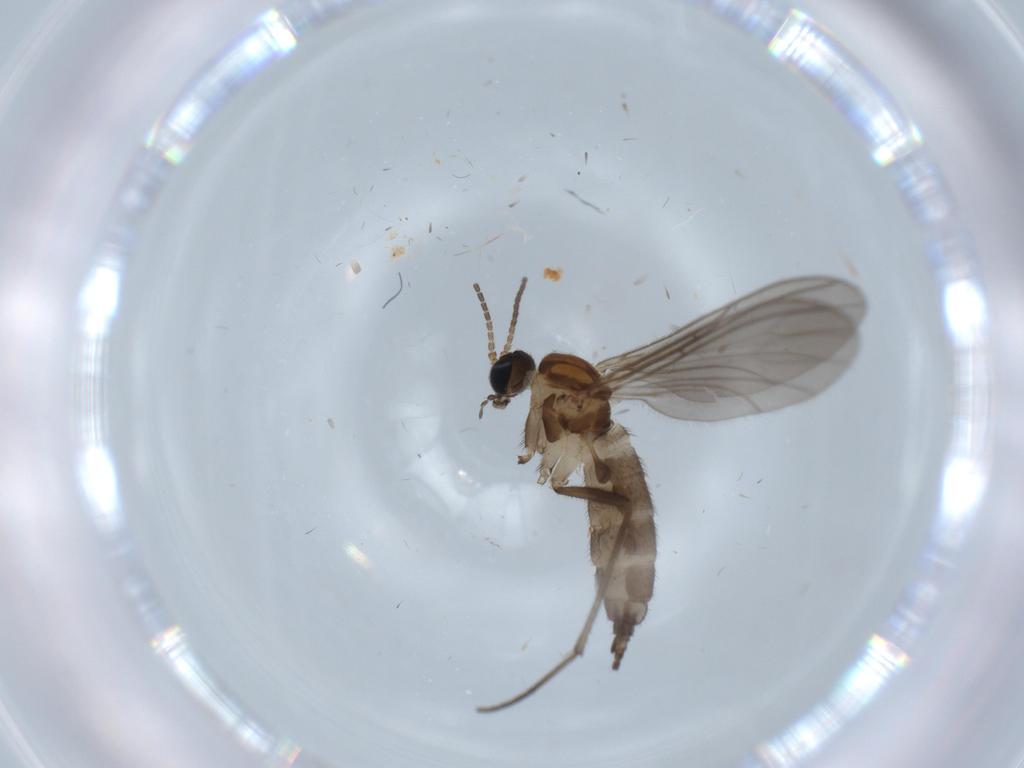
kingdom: Animalia
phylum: Arthropoda
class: Insecta
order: Diptera
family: Sciaridae
